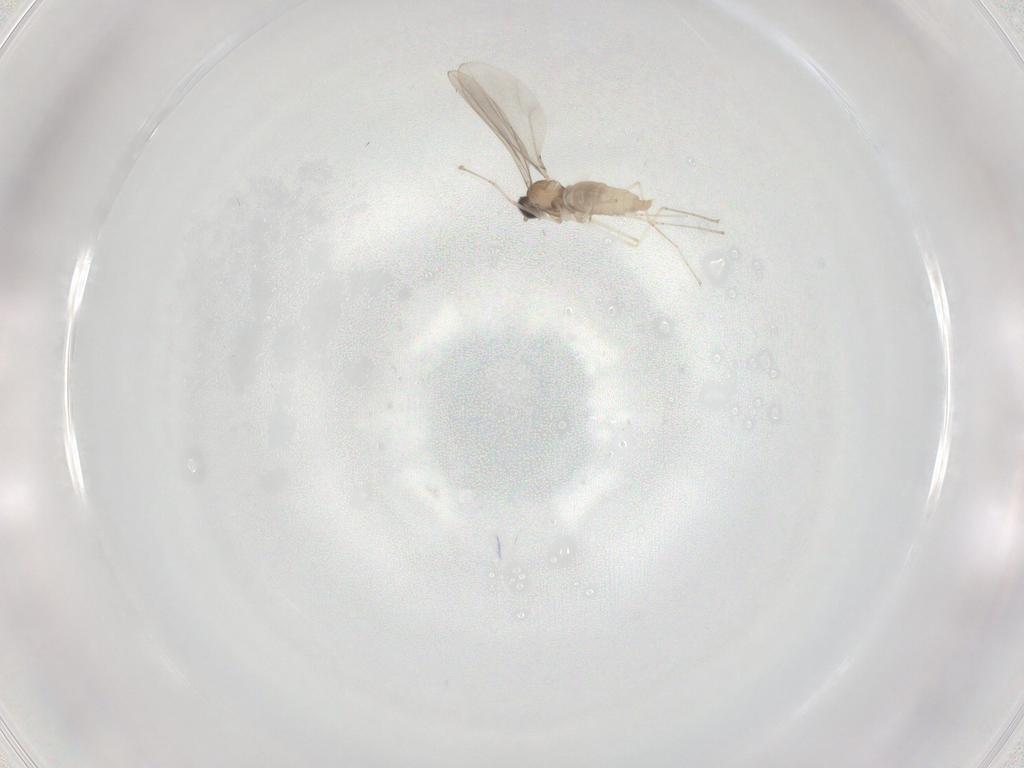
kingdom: Animalia
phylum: Arthropoda
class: Insecta
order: Diptera
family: Cecidomyiidae
